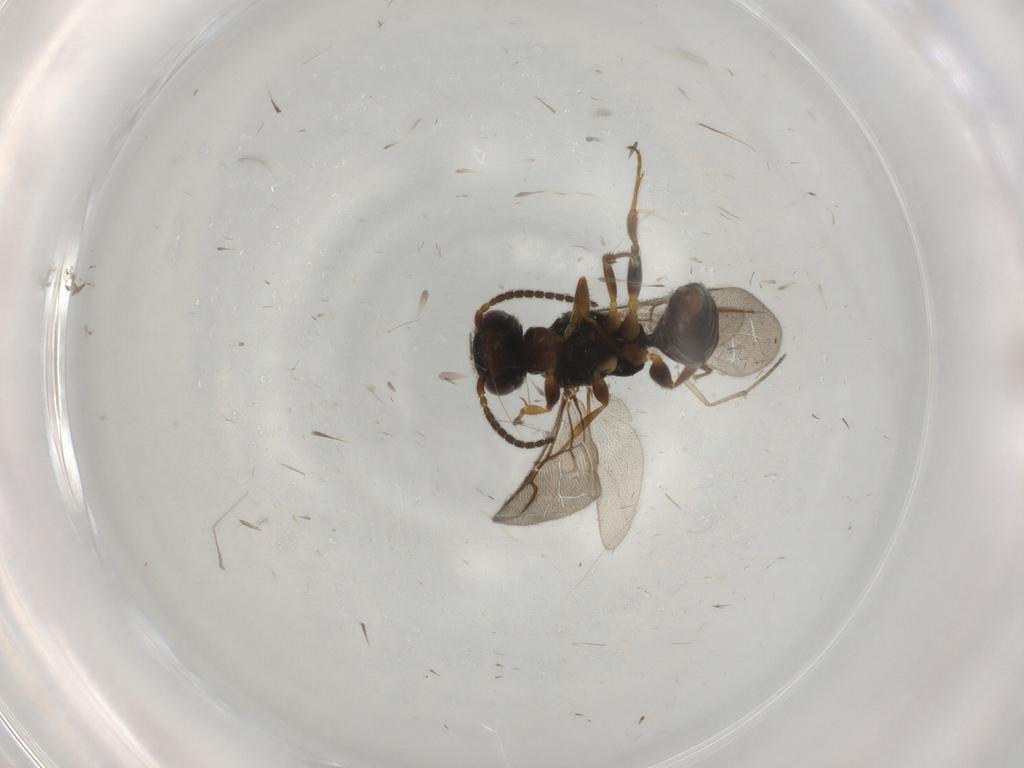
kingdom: Animalia
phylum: Arthropoda
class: Insecta
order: Hymenoptera
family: Bethylidae
